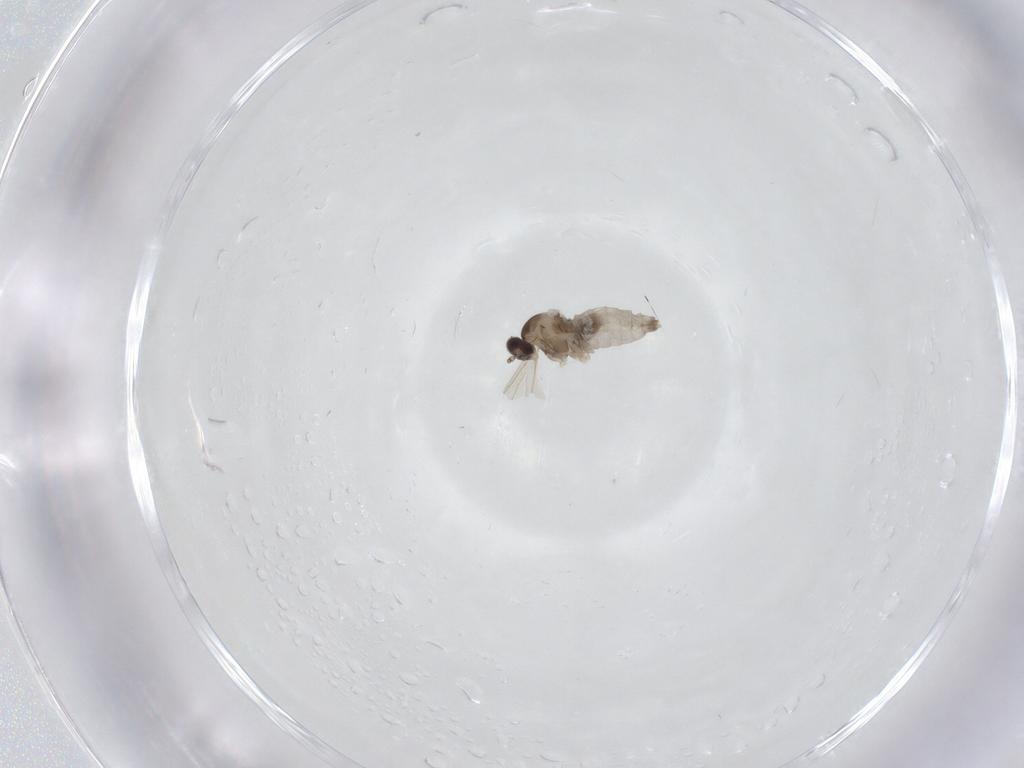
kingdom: Animalia
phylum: Arthropoda
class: Insecta
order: Diptera
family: Cecidomyiidae
